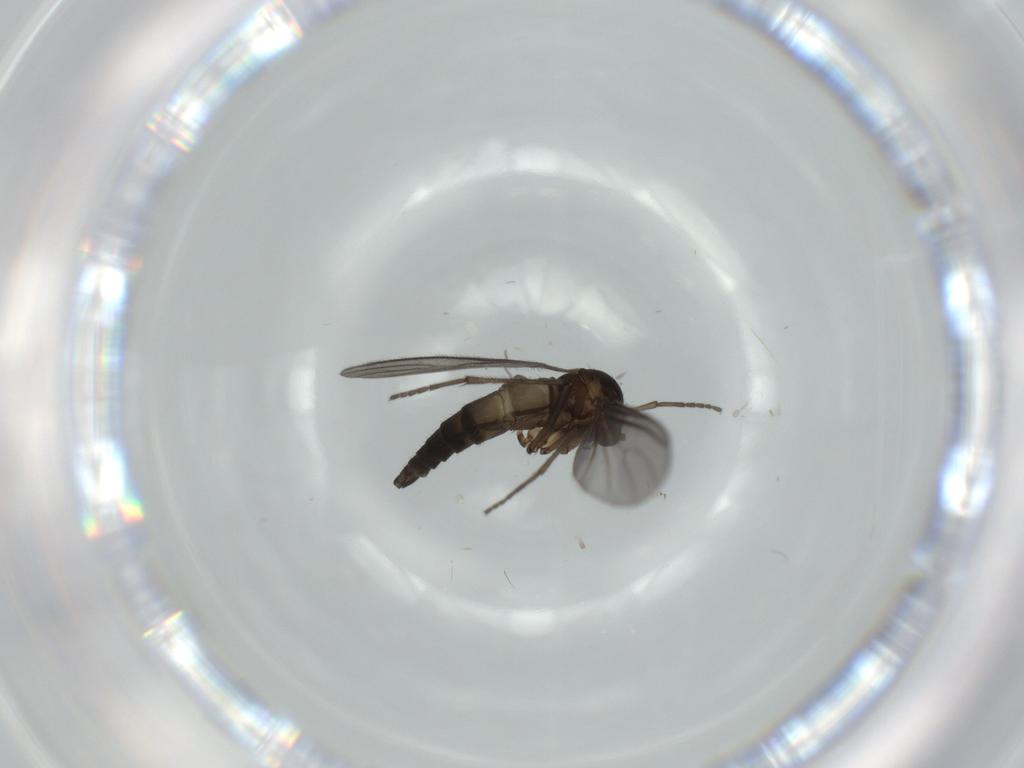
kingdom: Animalia
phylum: Arthropoda
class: Insecta
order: Diptera
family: Sciaridae
